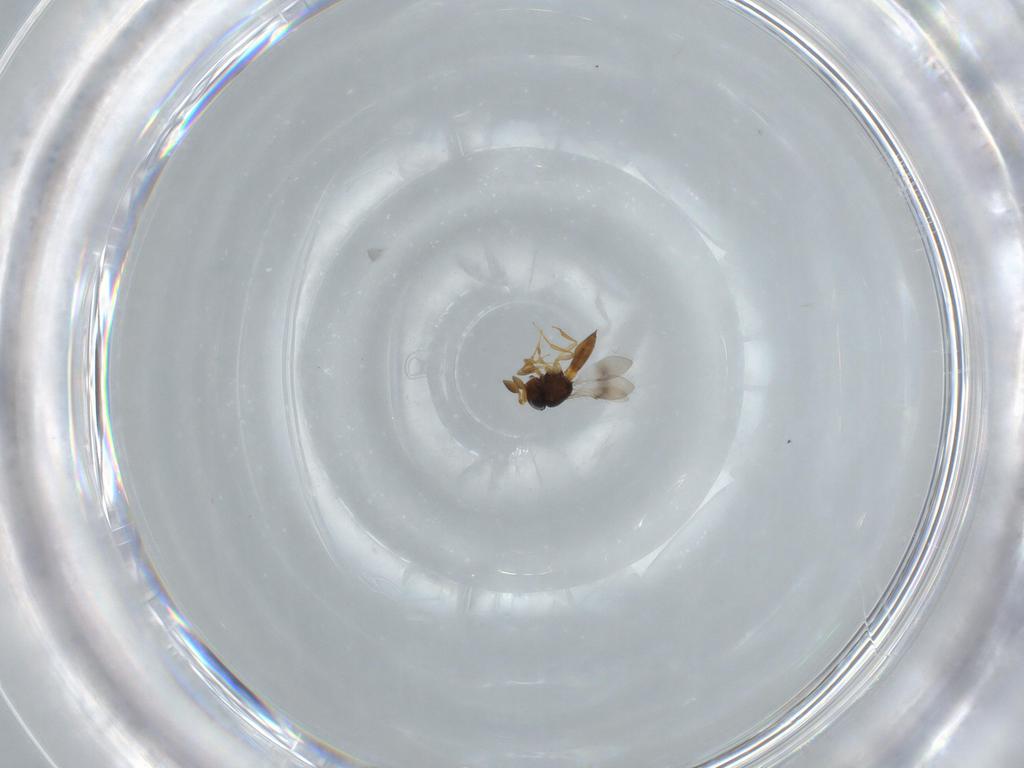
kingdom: Animalia
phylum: Arthropoda
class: Insecta
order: Hymenoptera
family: Scelionidae
